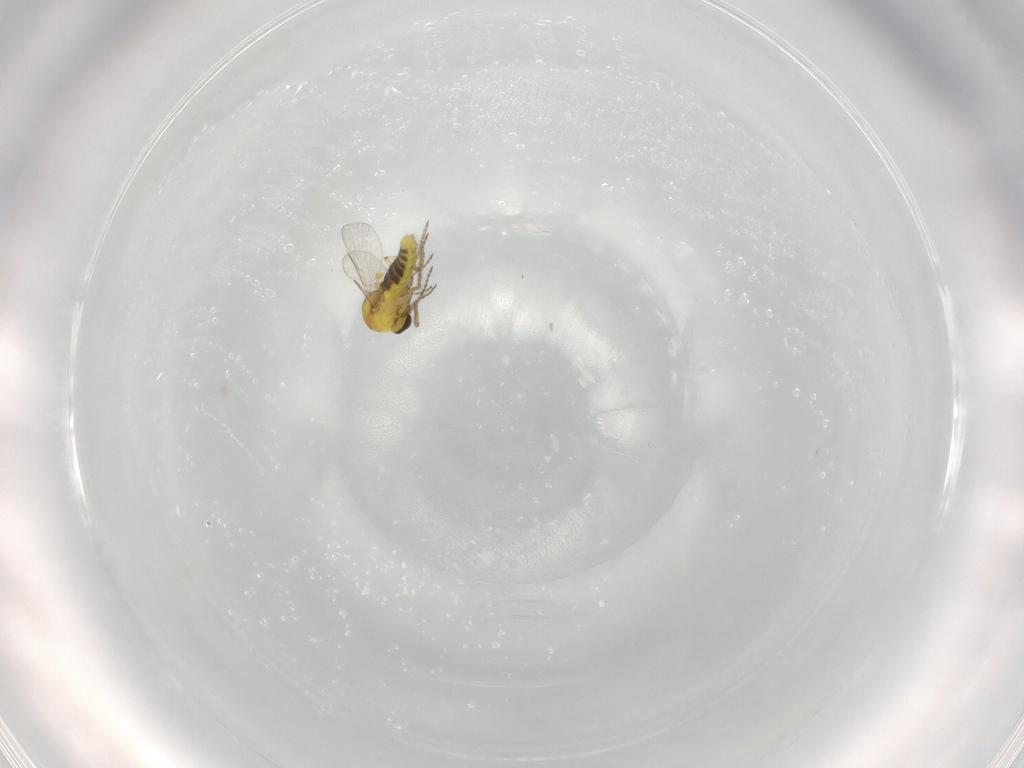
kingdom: Animalia
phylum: Arthropoda
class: Insecta
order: Diptera
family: Ceratopogonidae
